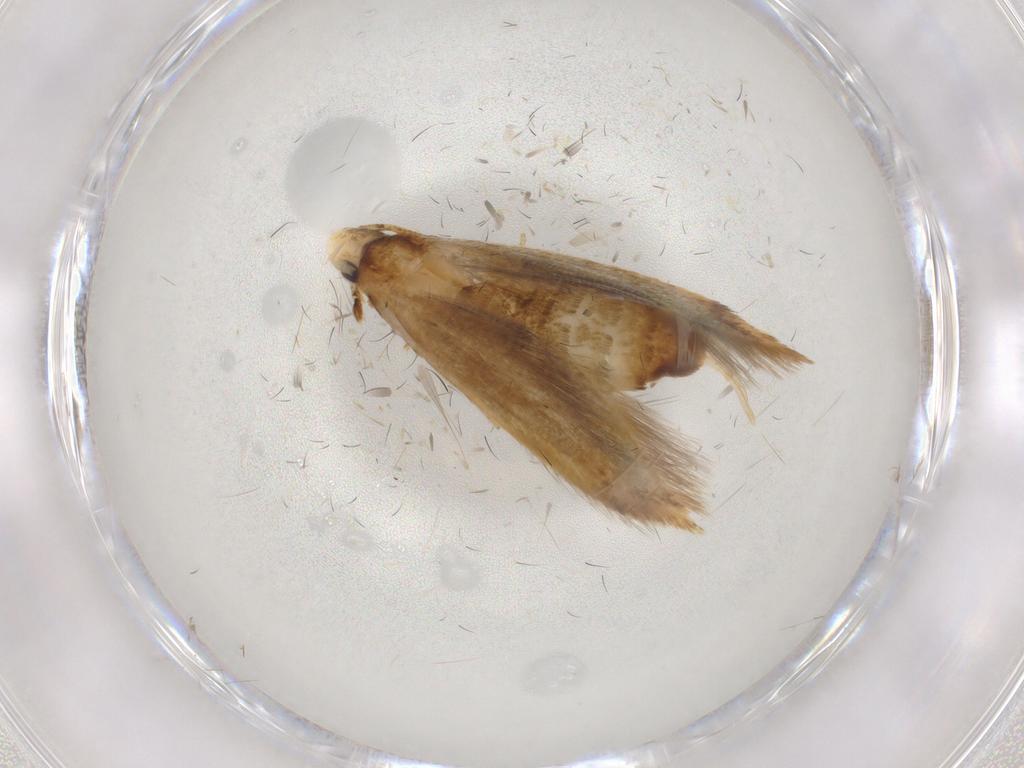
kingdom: Animalia
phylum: Arthropoda
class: Insecta
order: Lepidoptera
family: Tineidae
